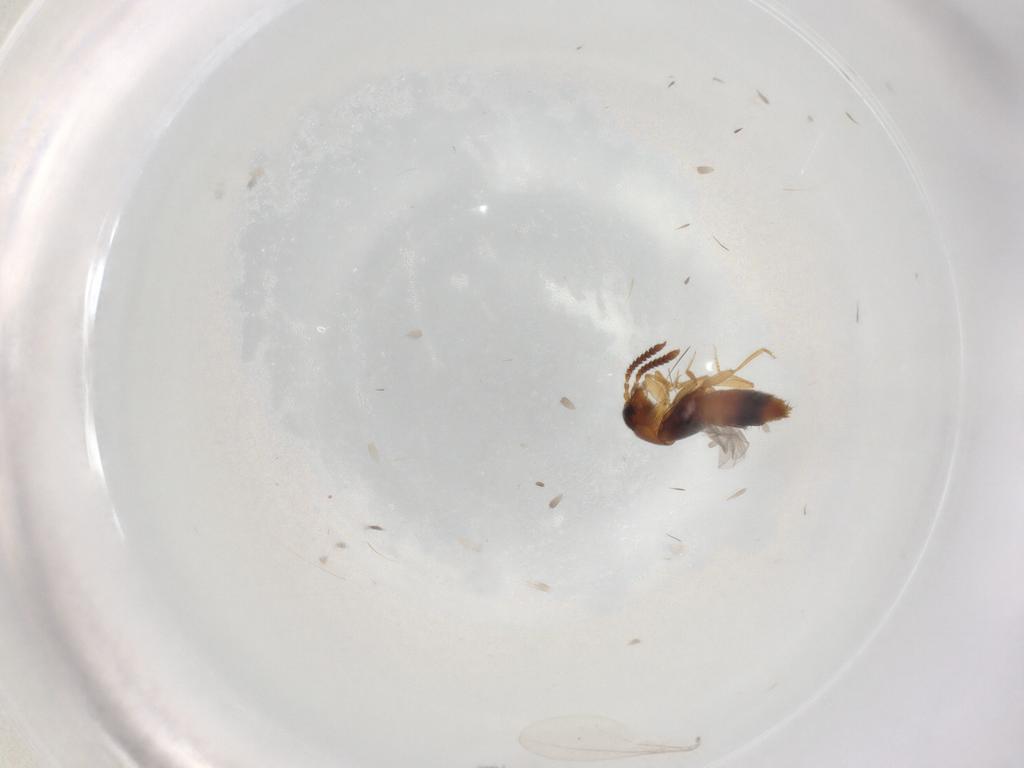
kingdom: Animalia
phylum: Arthropoda
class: Insecta
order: Coleoptera
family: Staphylinidae
